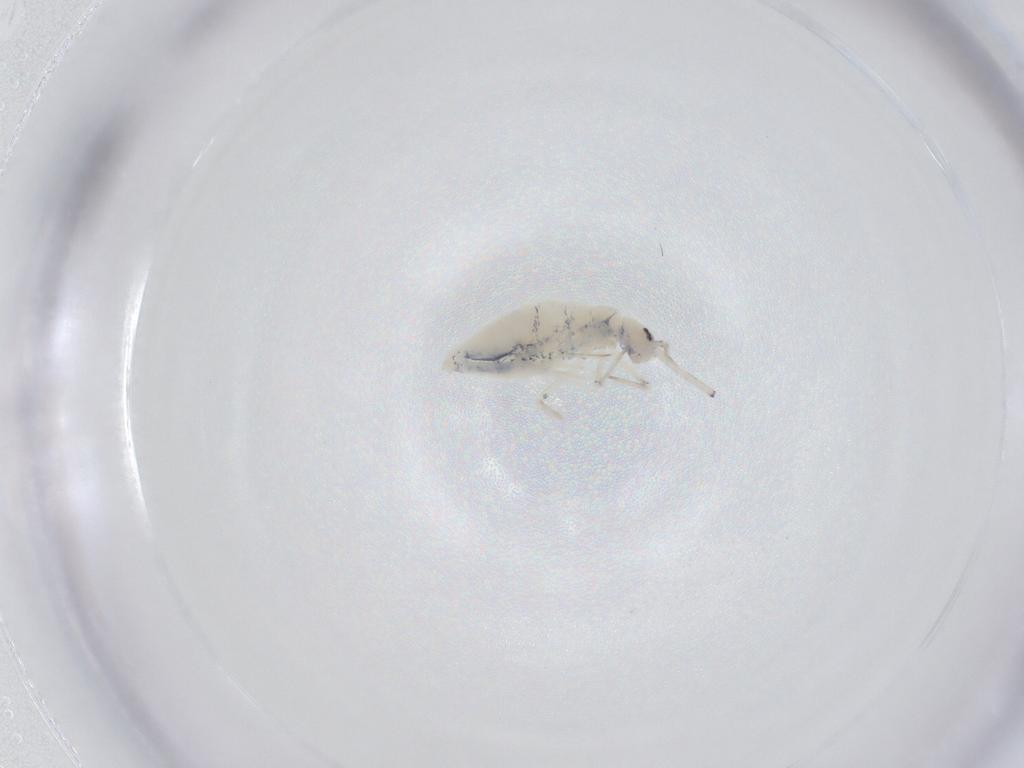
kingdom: Animalia
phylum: Arthropoda
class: Collembola
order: Entomobryomorpha
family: Paronellidae
